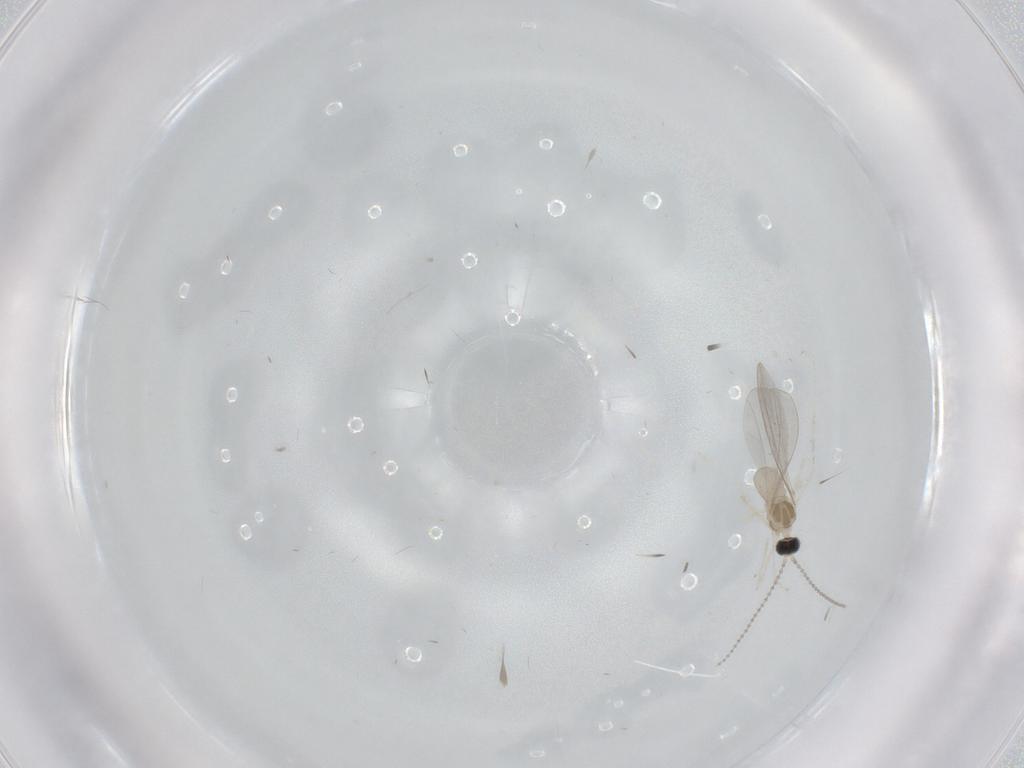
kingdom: Animalia
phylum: Arthropoda
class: Insecta
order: Diptera
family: Cecidomyiidae
